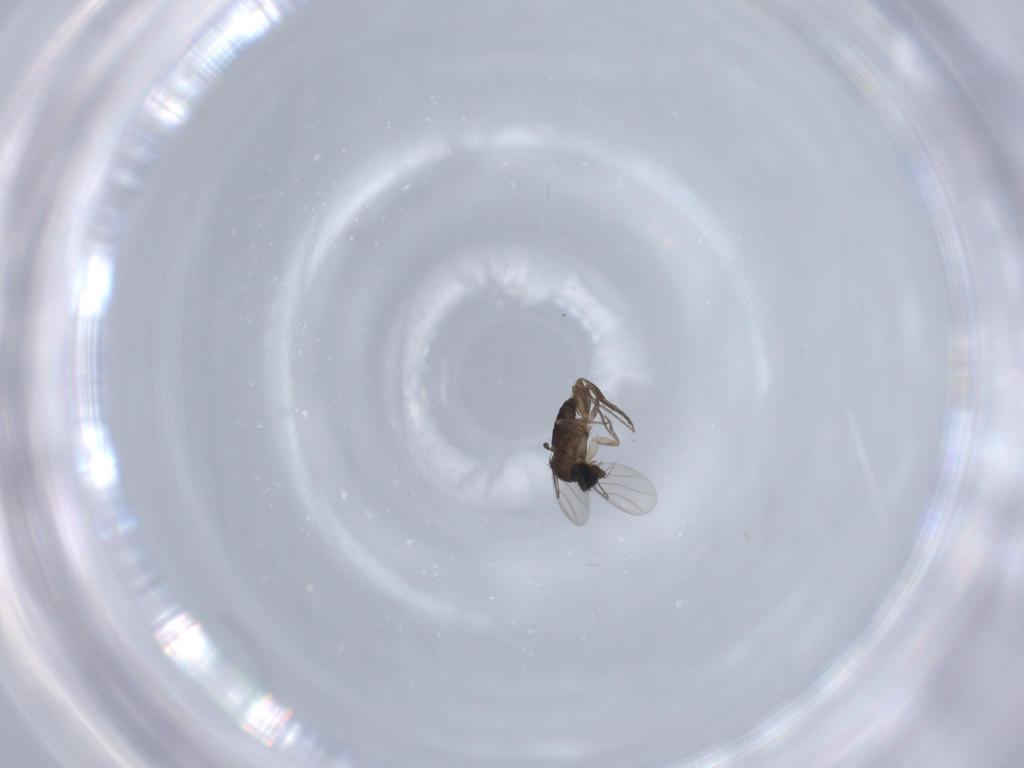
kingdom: Animalia
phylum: Arthropoda
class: Insecta
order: Diptera
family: Phoridae
